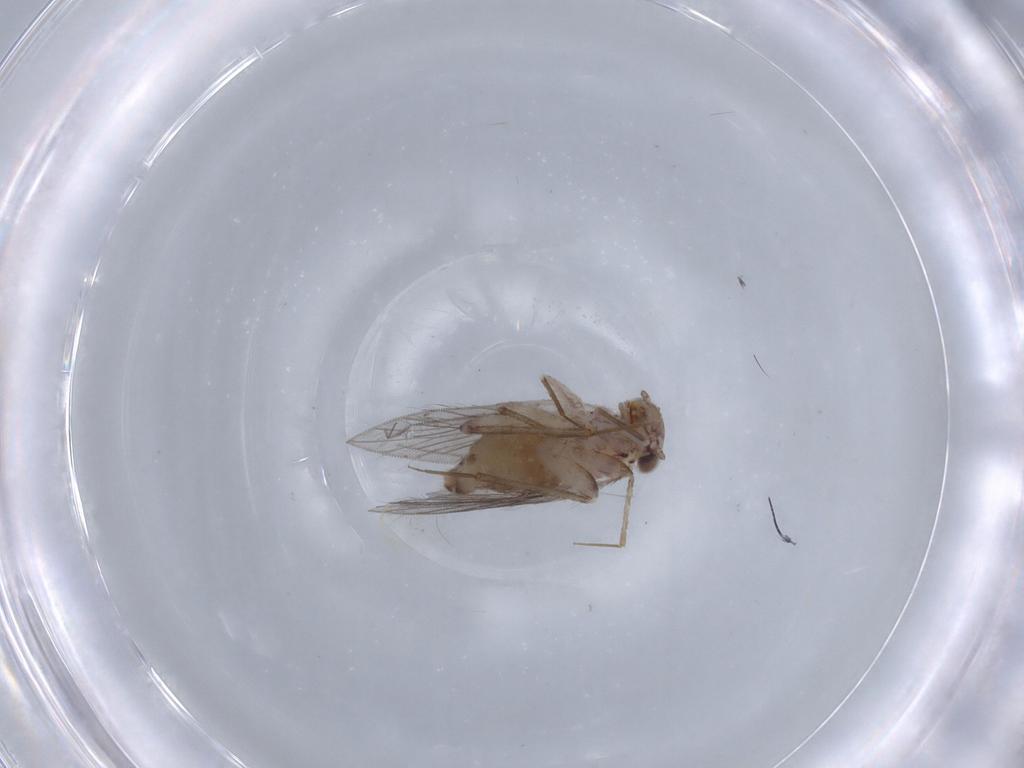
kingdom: Animalia
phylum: Arthropoda
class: Insecta
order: Psocodea
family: Lepidopsocidae
